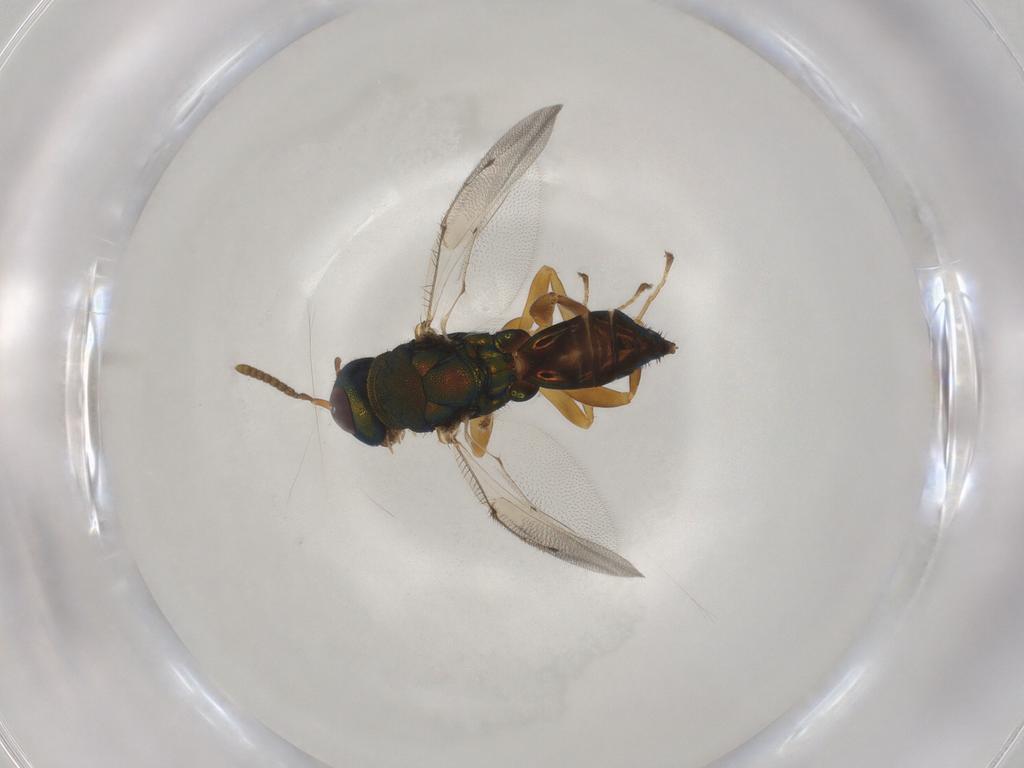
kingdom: Animalia
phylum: Arthropoda
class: Insecta
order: Hymenoptera
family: Pteromalidae
